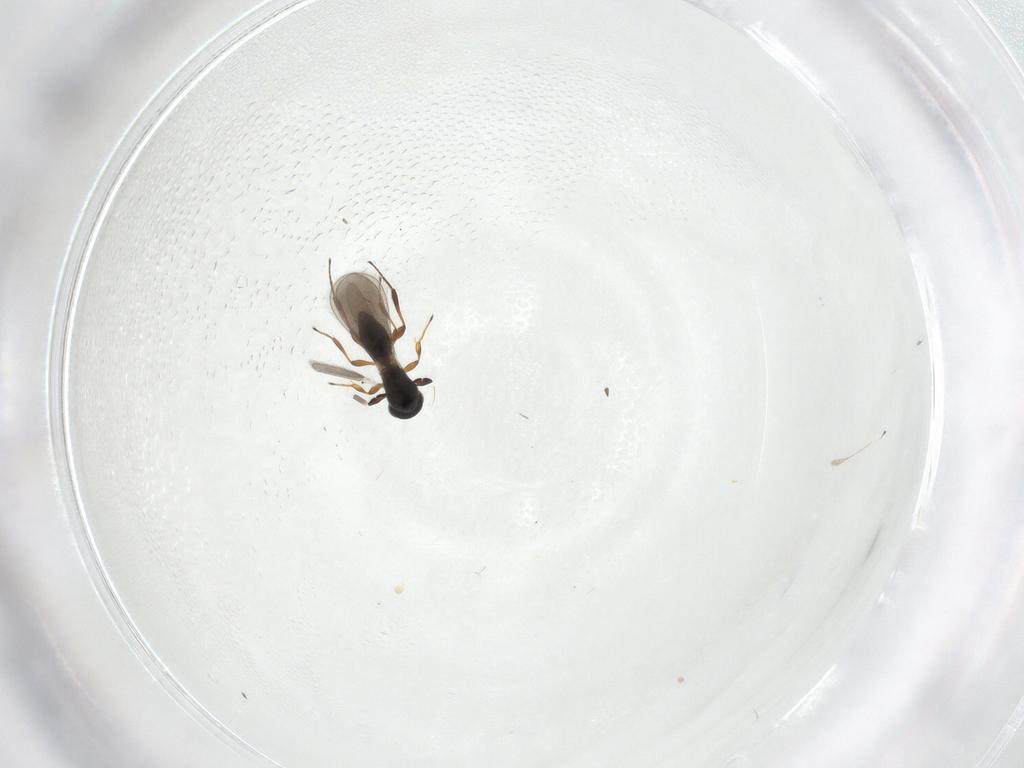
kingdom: Animalia
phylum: Arthropoda
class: Insecta
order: Hymenoptera
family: Platygastridae
